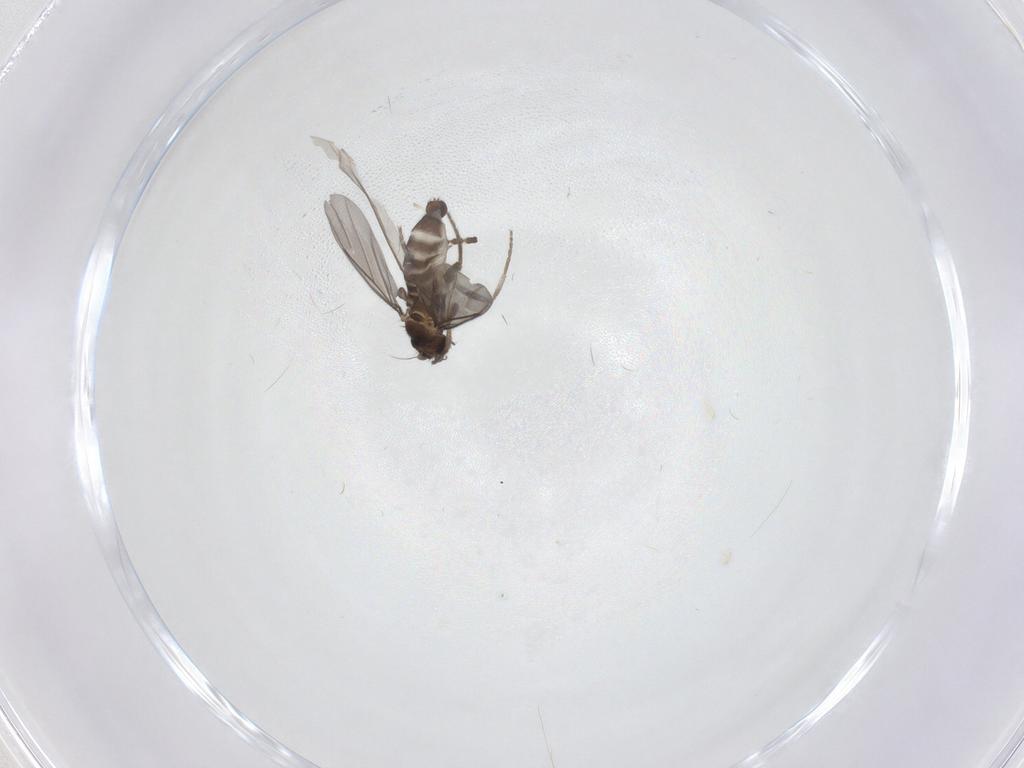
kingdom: Animalia
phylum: Arthropoda
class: Insecta
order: Diptera
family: Phoridae
